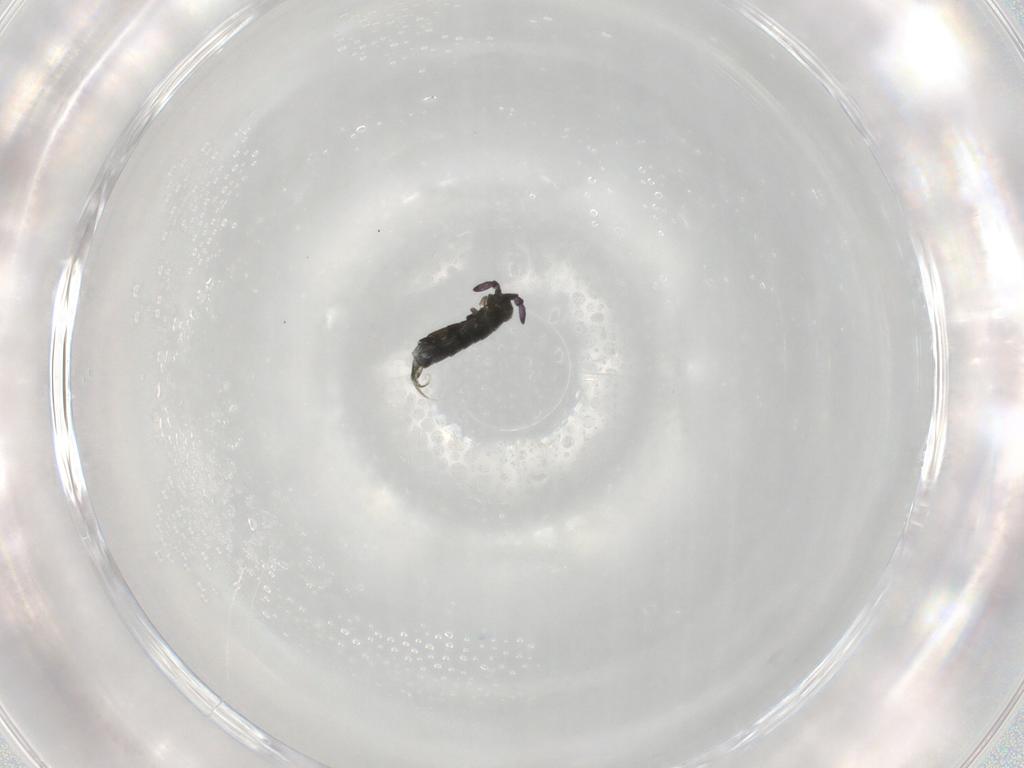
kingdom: Animalia
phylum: Arthropoda
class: Collembola
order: Entomobryomorpha
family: Isotomidae
